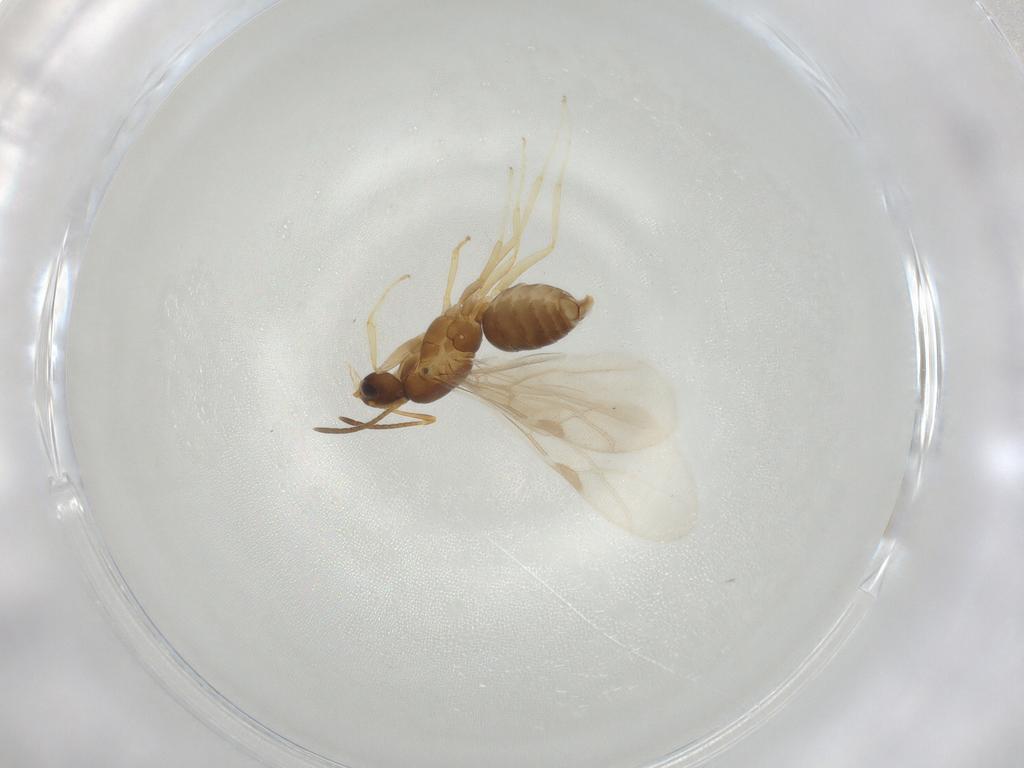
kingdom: Animalia
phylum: Arthropoda
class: Insecta
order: Hymenoptera
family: Formicidae
